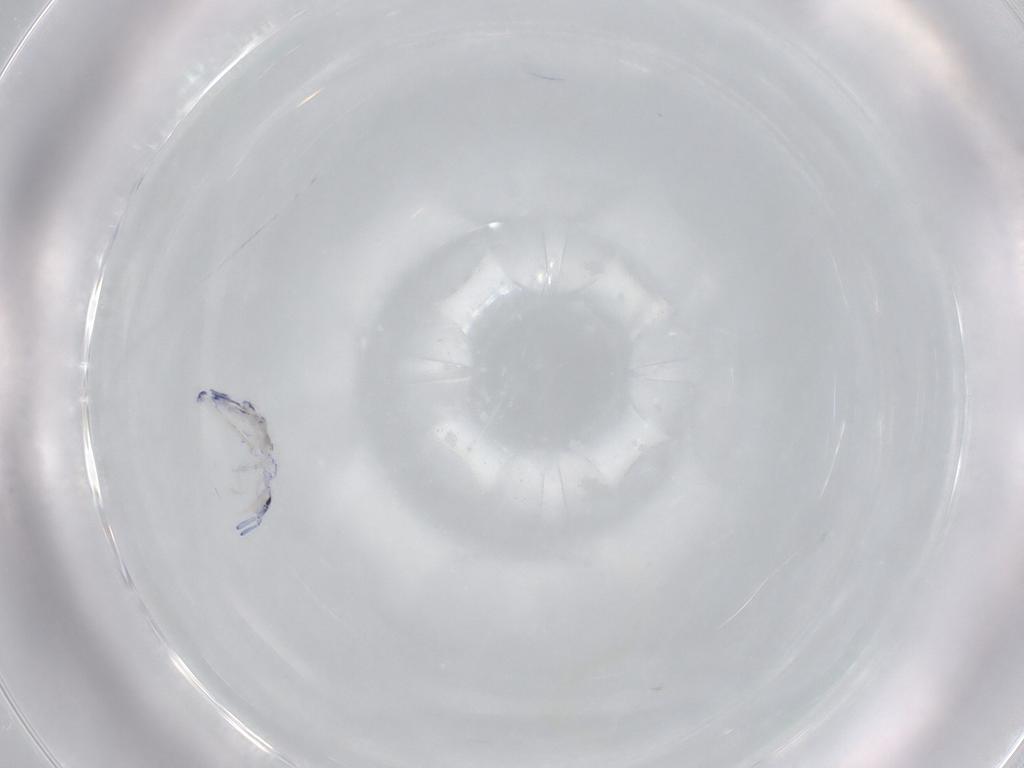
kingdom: Animalia
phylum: Arthropoda
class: Collembola
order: Entomobryomorpha
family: Entomobryidae
